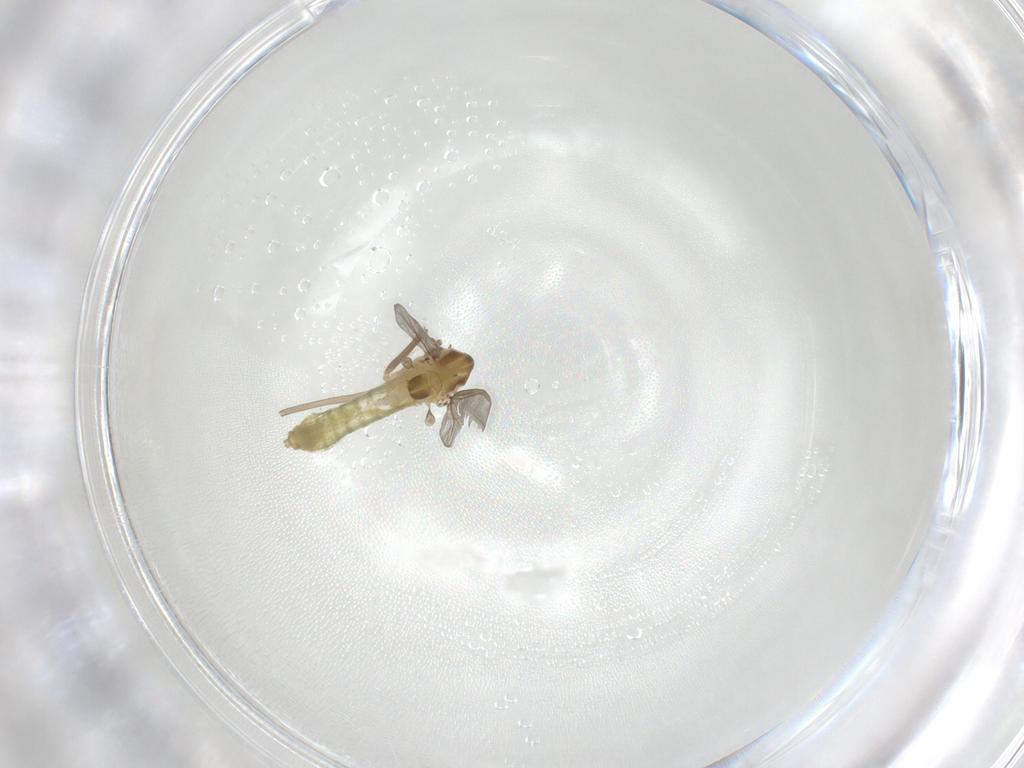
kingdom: Animalia
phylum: Arthropoda
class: Insecta
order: Diptera
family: Chironomidae
